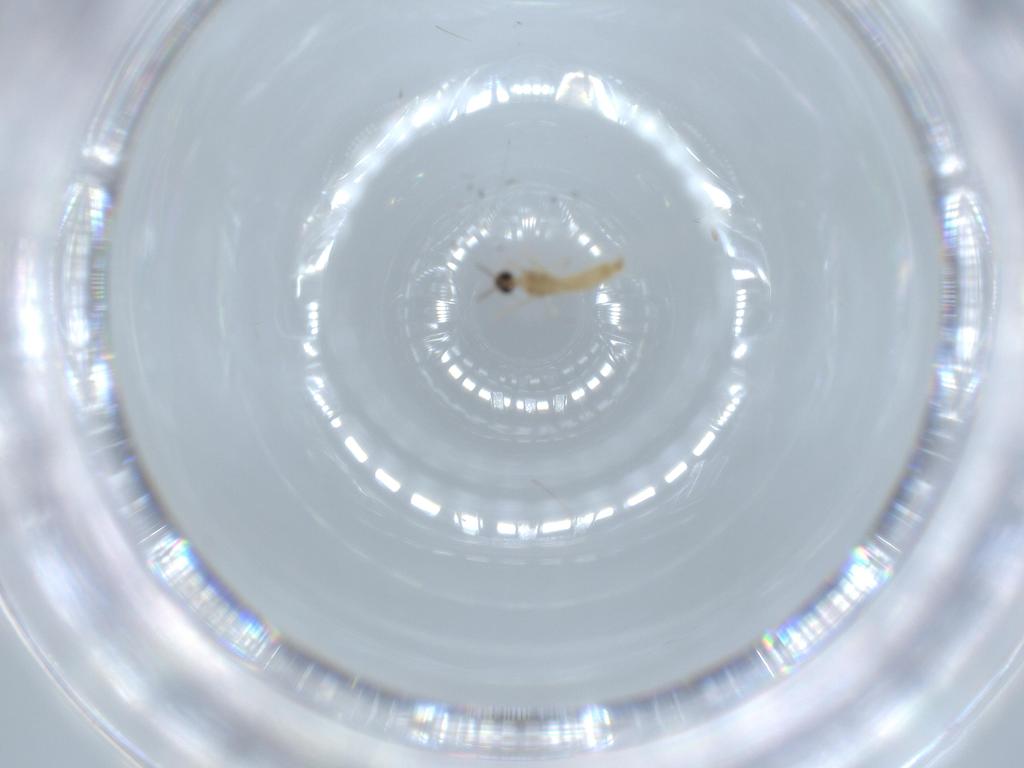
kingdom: Animalia
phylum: Arthropoda
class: Insecta
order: Diptera
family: Cecidomyiidae
